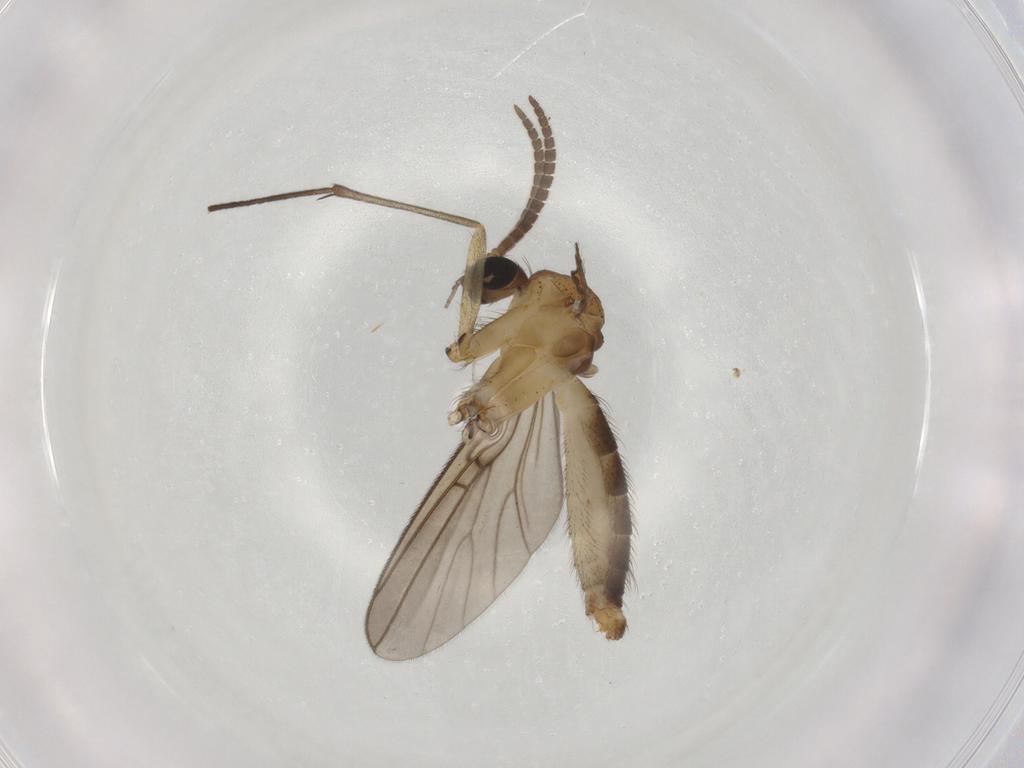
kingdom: Animalia
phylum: Arthropoda
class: Insecta
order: Diptera
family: Cecidomyiidae
